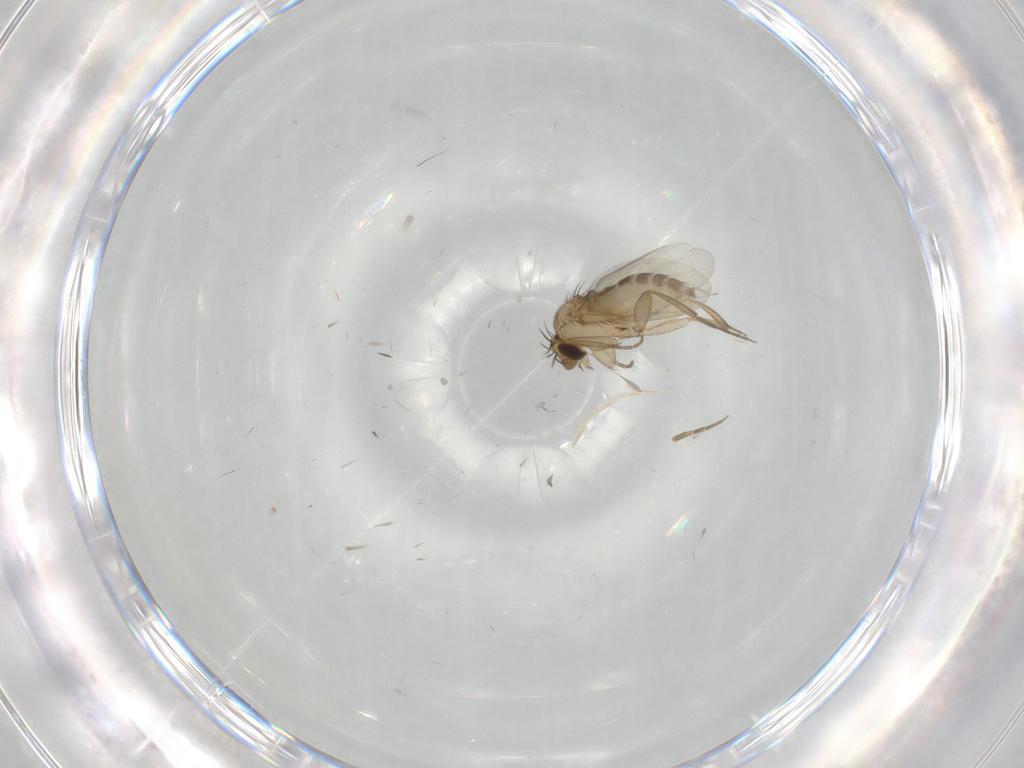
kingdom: Animalia
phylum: Arthropoda
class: Insecta
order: Diptera
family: Phoridae
